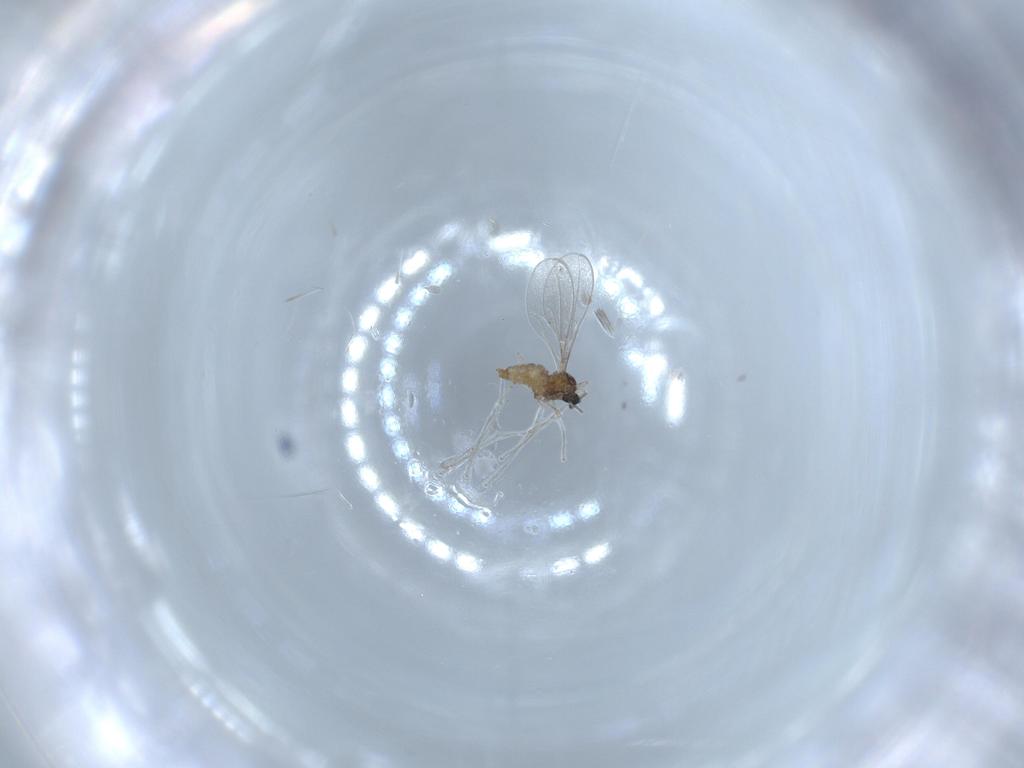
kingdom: Animalia
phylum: Arthropoda
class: Insecta
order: Diptera
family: Cecidomyiidae
